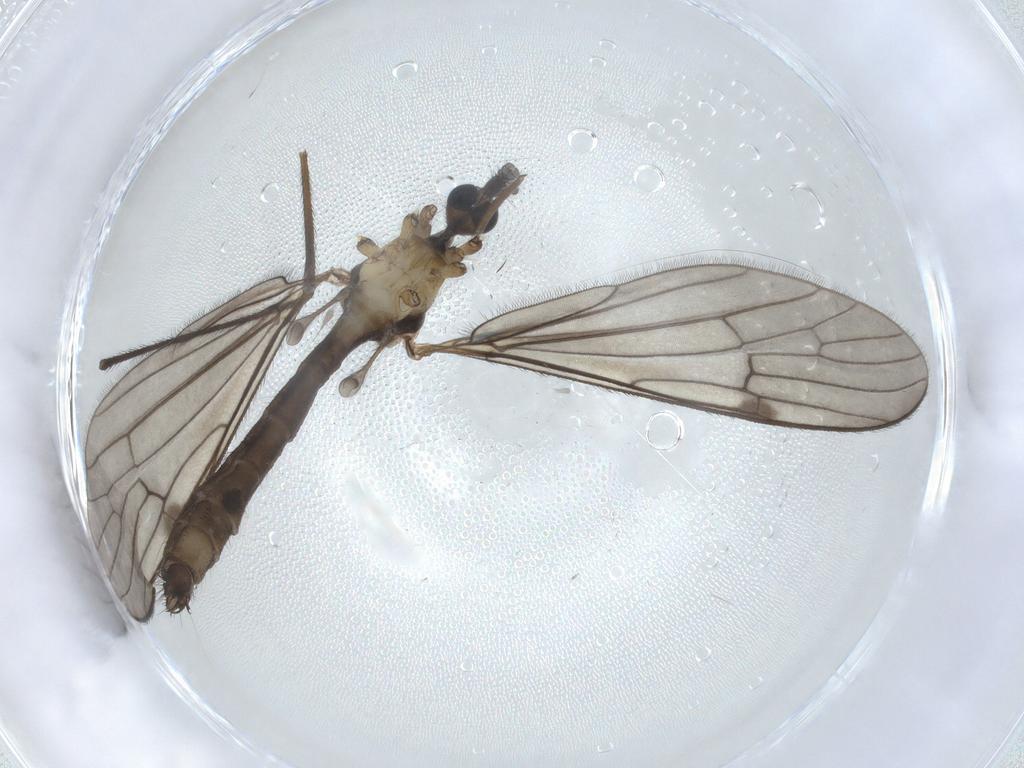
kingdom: Animalia
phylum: Arthropoda
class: Insecta
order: Diptera
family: Limoniidae
